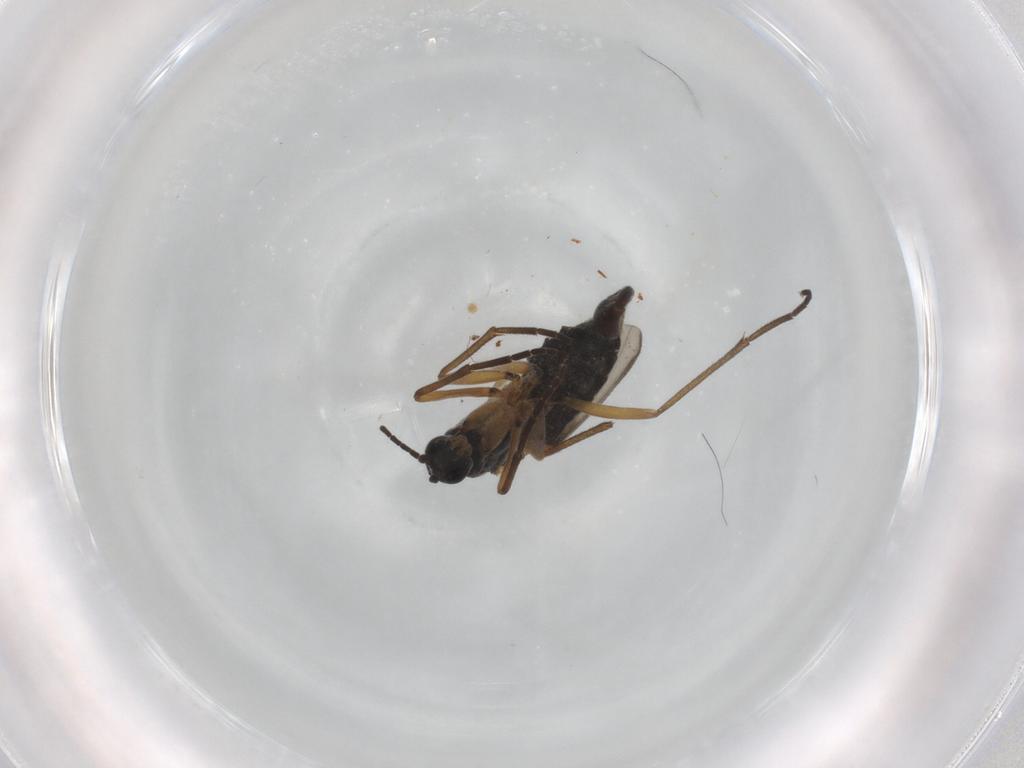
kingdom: Animalia
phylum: Arthropoda
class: Insecta
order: Diptera
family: Sciaridae
